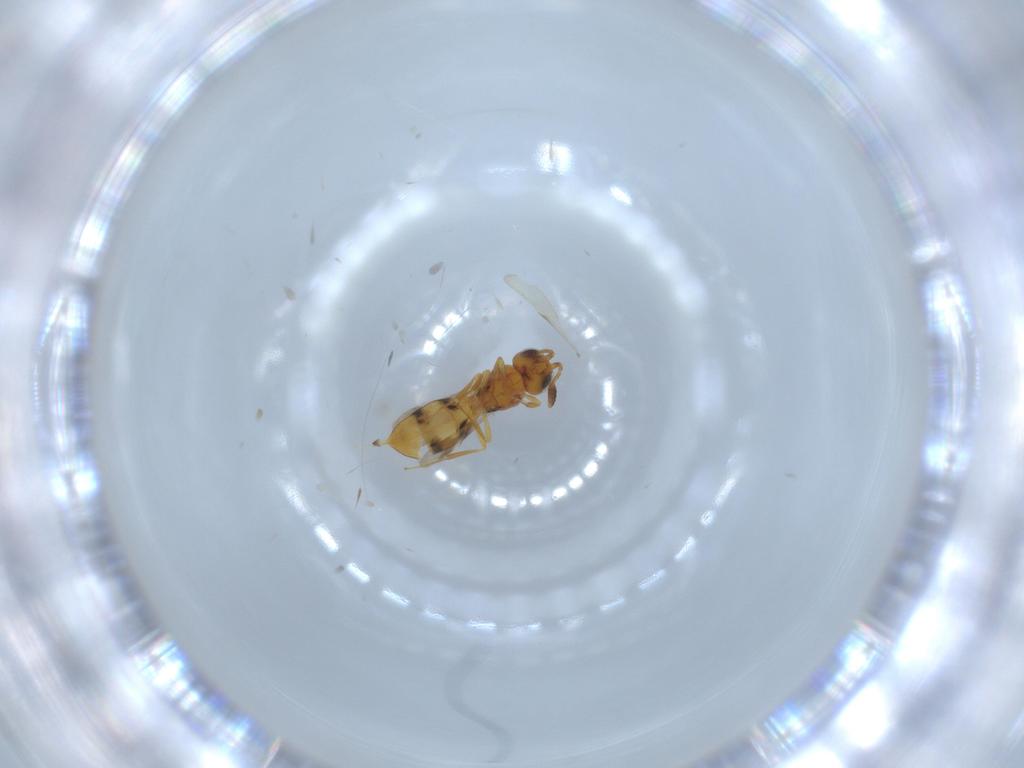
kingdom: Animalia
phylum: Arthropoda
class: Insecta
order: Hymenoptera
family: Scelionidae
